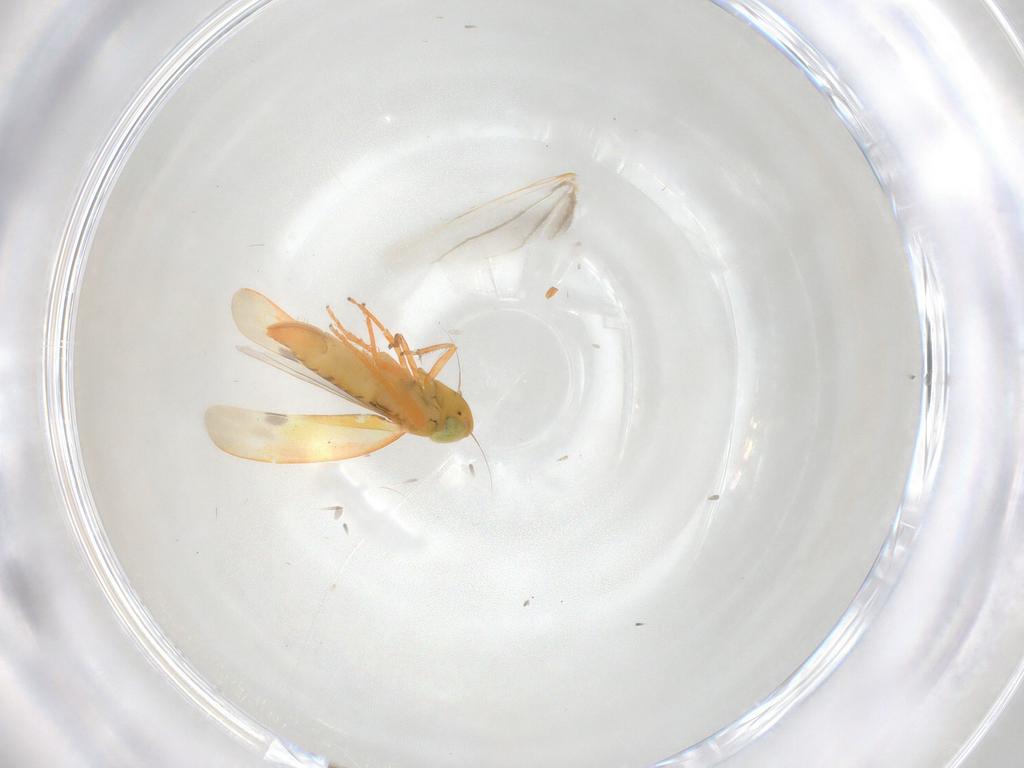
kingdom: Animalia
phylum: Arthropoda
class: Insecta
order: Hemiptera
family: Cicadellidae
